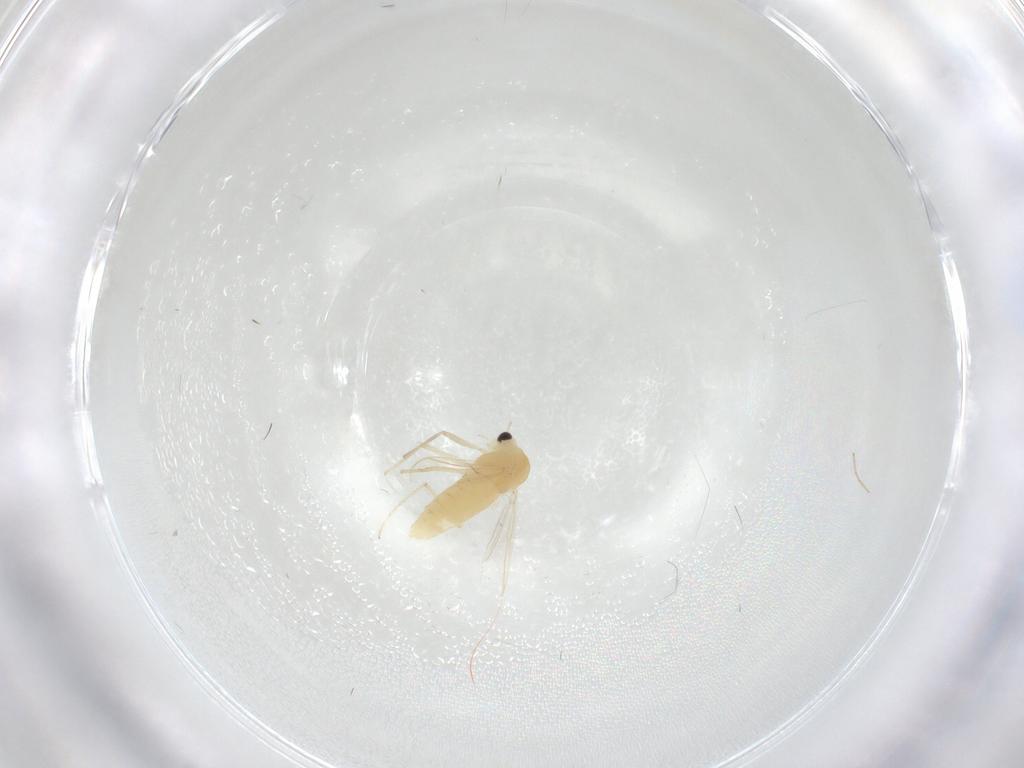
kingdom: Animalia
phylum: Arthropoda
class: Insecta
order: Diptera
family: Chironomidae
